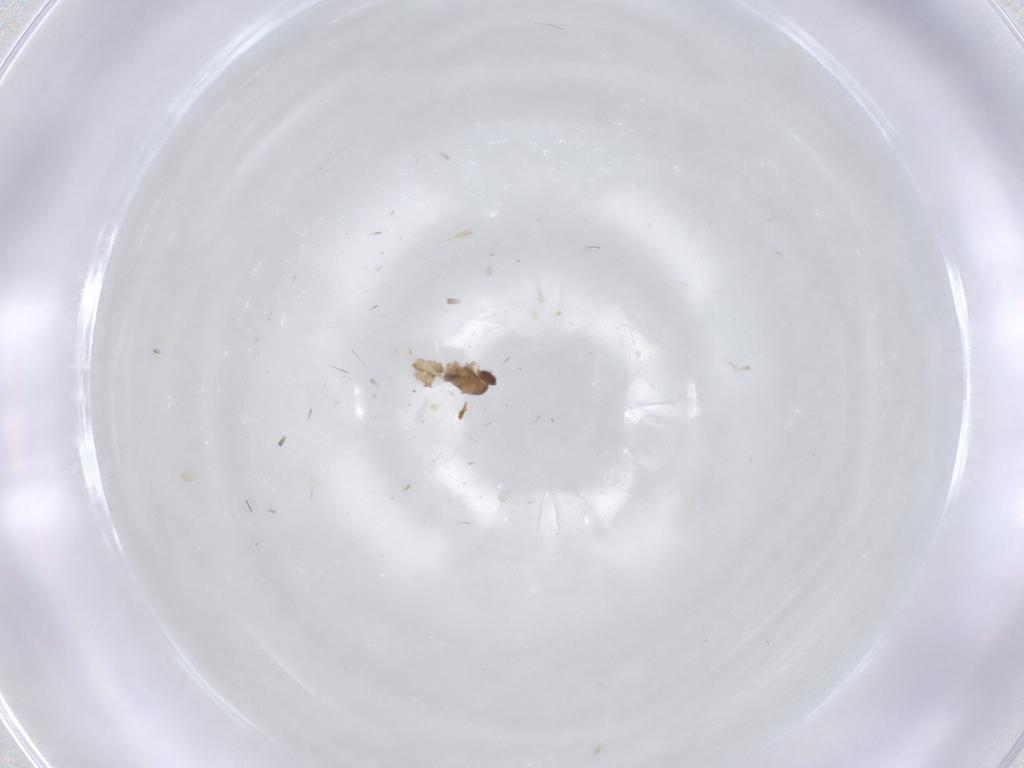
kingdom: Animalia
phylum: Arthropoda
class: Insecta
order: Diptera
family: Cecidomyiidae
